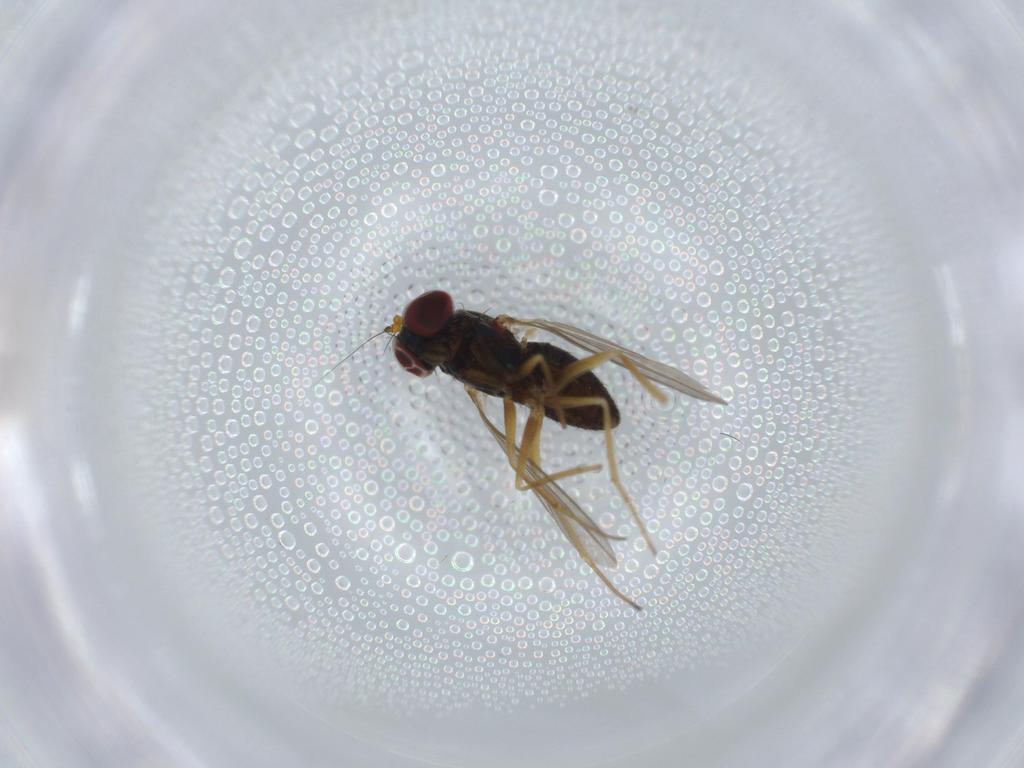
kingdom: Animalia
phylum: Arthropoda
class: Insecta
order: Diptera
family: Dolichopodidae
